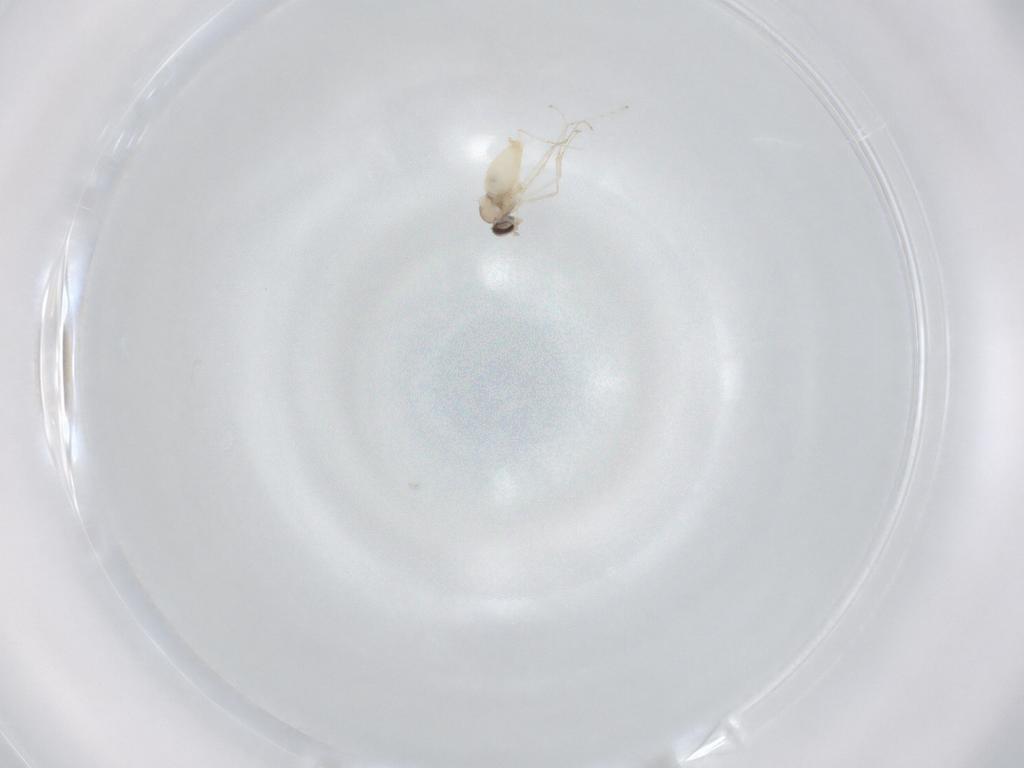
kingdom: Animalia
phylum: Arthropoda
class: Insecta
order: Diptera
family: Cecidomyiidae
